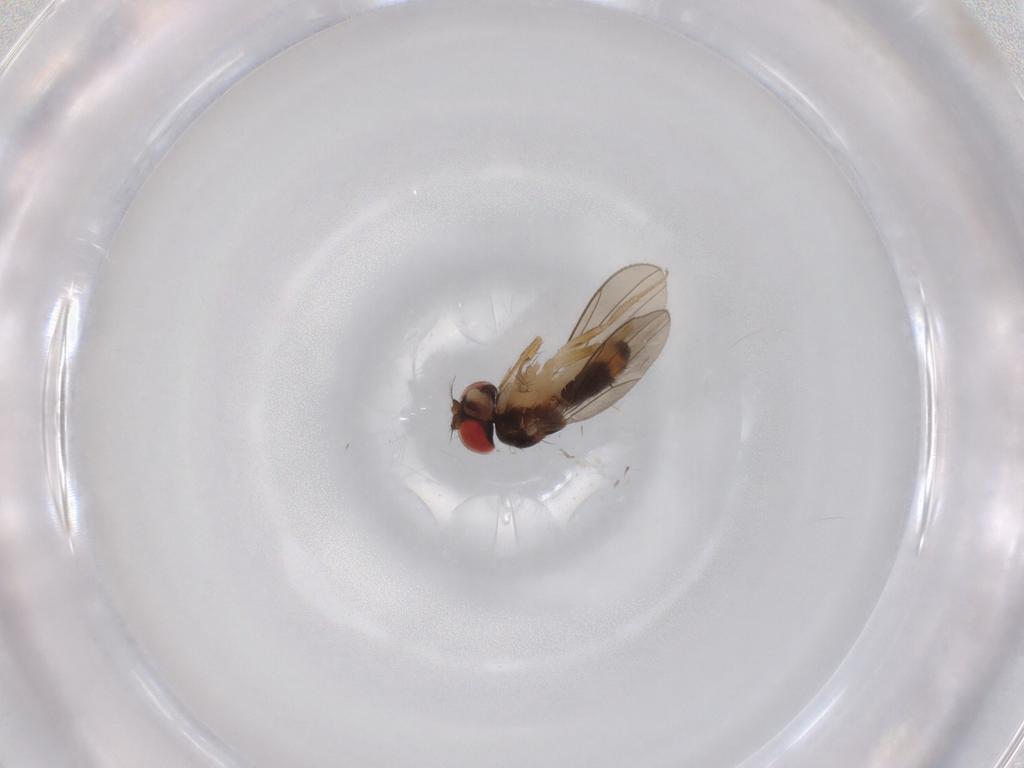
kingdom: Animalia
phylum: Arthropoda
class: Insecta
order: Diptera
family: Drosophilidae
